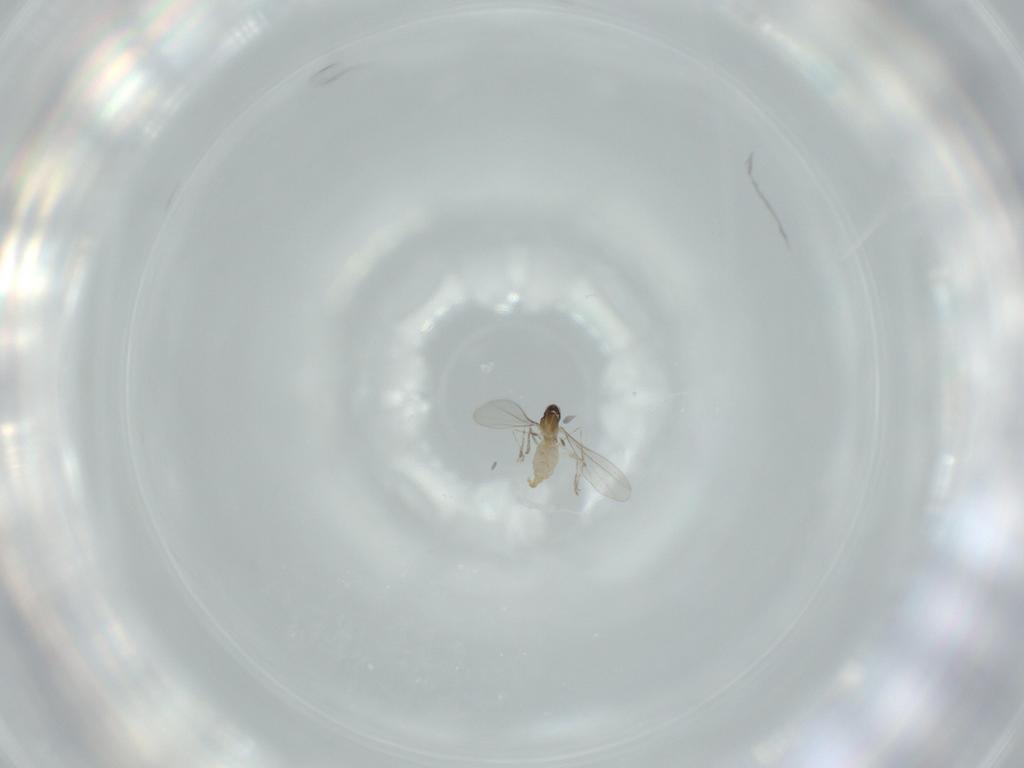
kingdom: Animalia
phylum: Arthropoda
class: Insecta
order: Diptera
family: Cecidomyiidae
